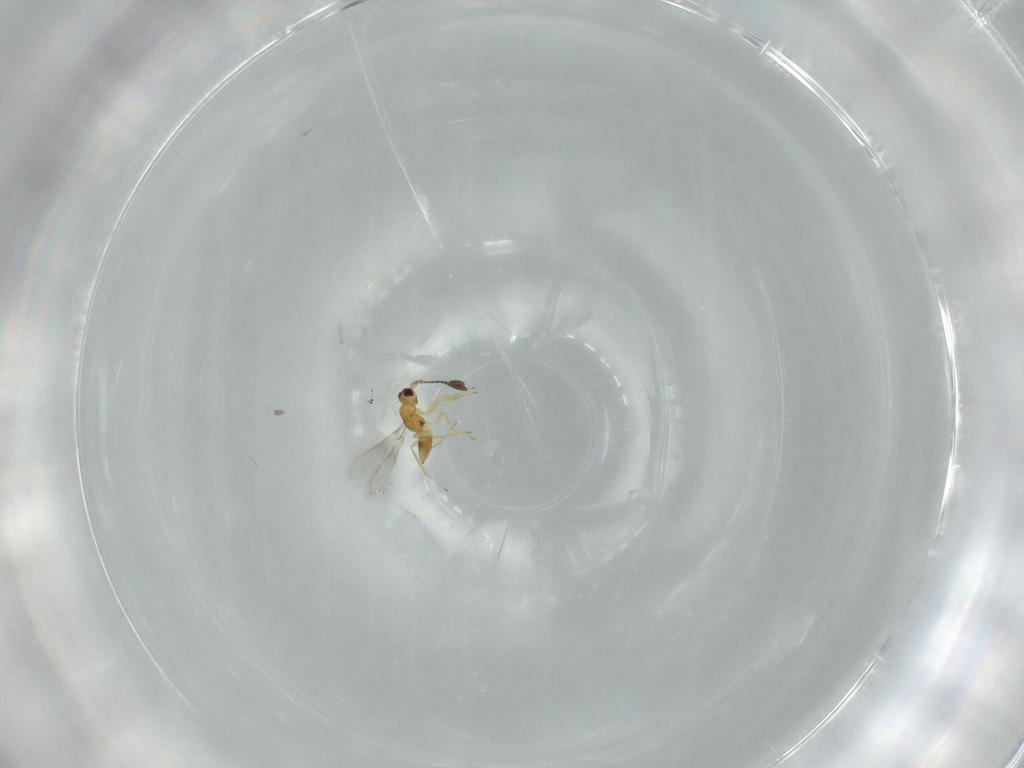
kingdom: Animalia
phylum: Arthropoda
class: Insecta
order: Hymenoptera
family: Mymaridae
